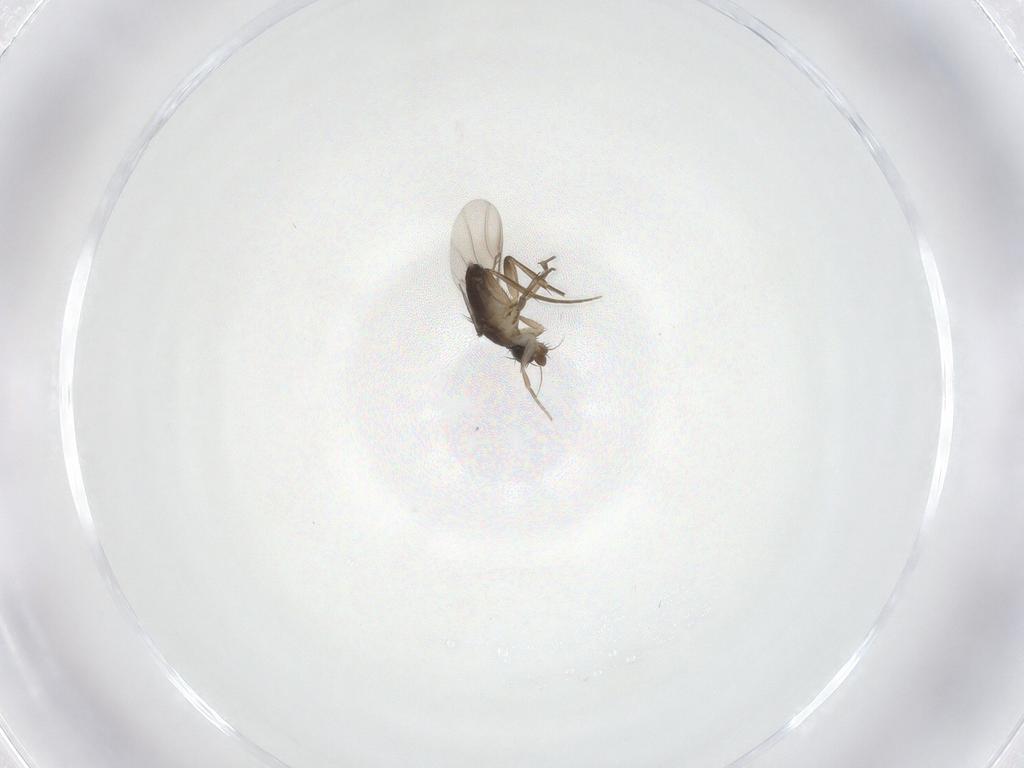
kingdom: Animalia
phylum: Arthropoda
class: Insecta
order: Diptera
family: Phoridae
